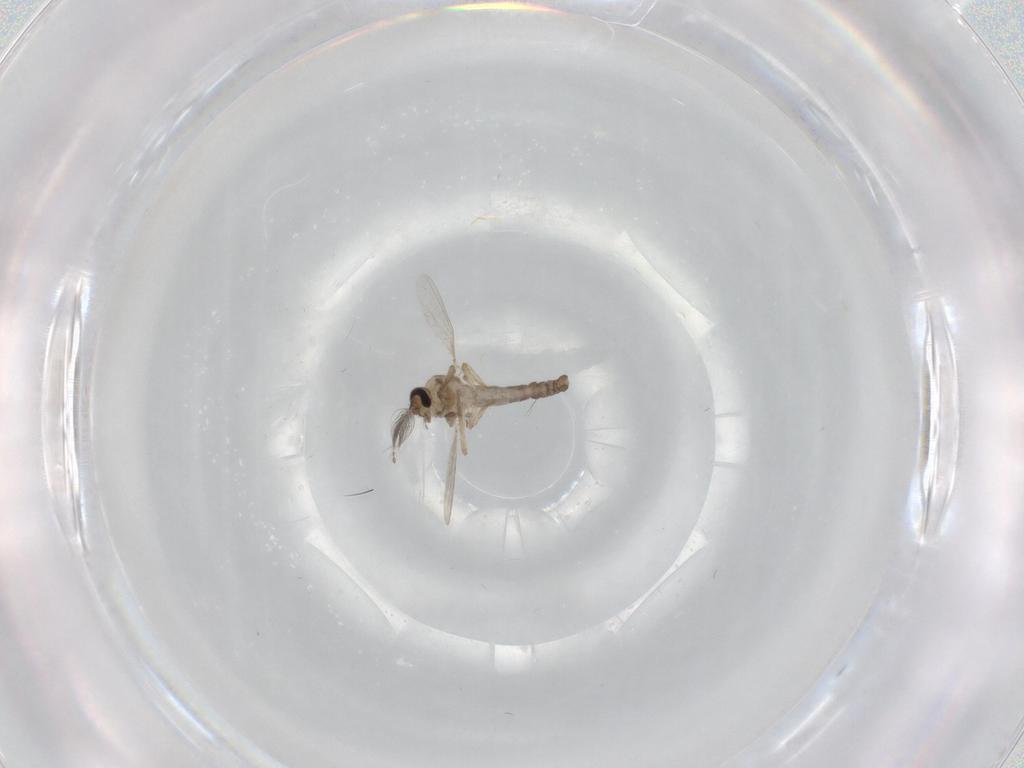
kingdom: Animalia
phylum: Arthropoda
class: Insecta
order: Diptera
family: Ceratopogonidae
